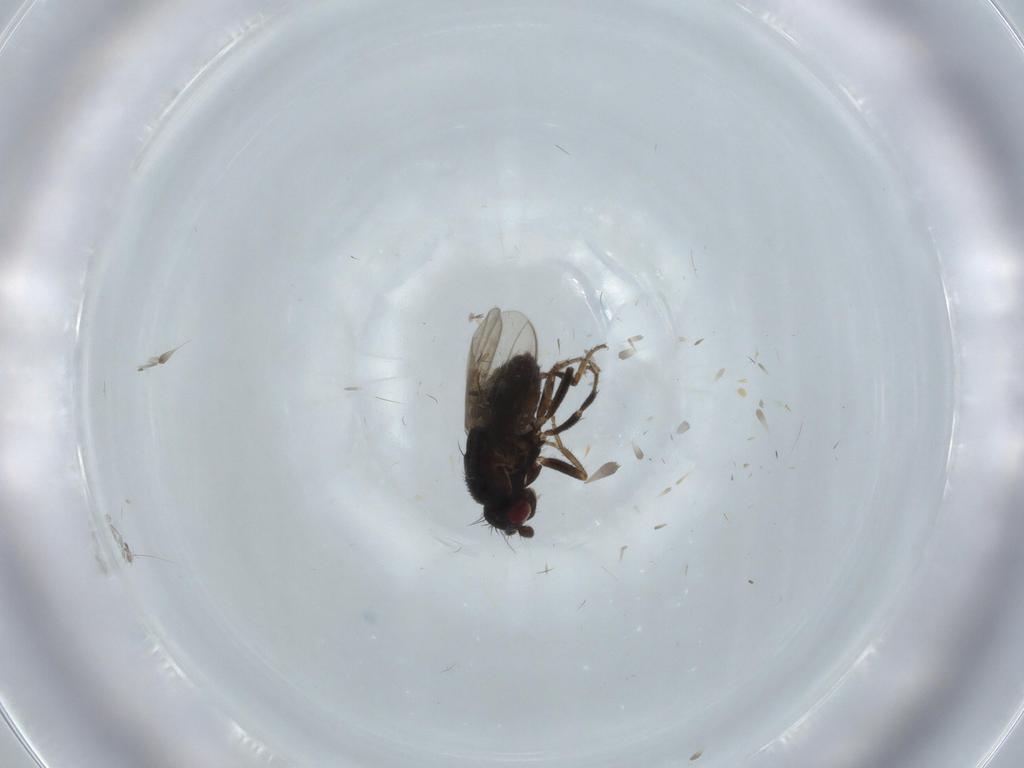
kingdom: Animalia
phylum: Arthropoda
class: Insecta
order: Diptera
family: Sphaeroceridae
